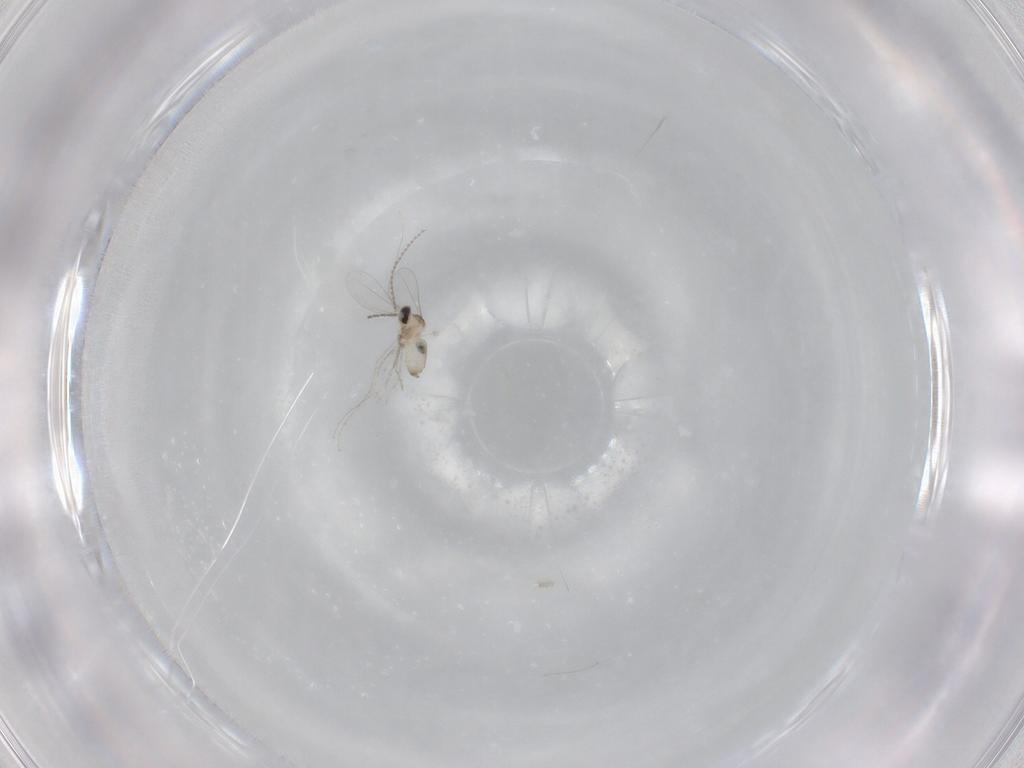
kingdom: Animalia
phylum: Arthropoda
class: Insecta
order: Diptera
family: Cecidomyiidae
